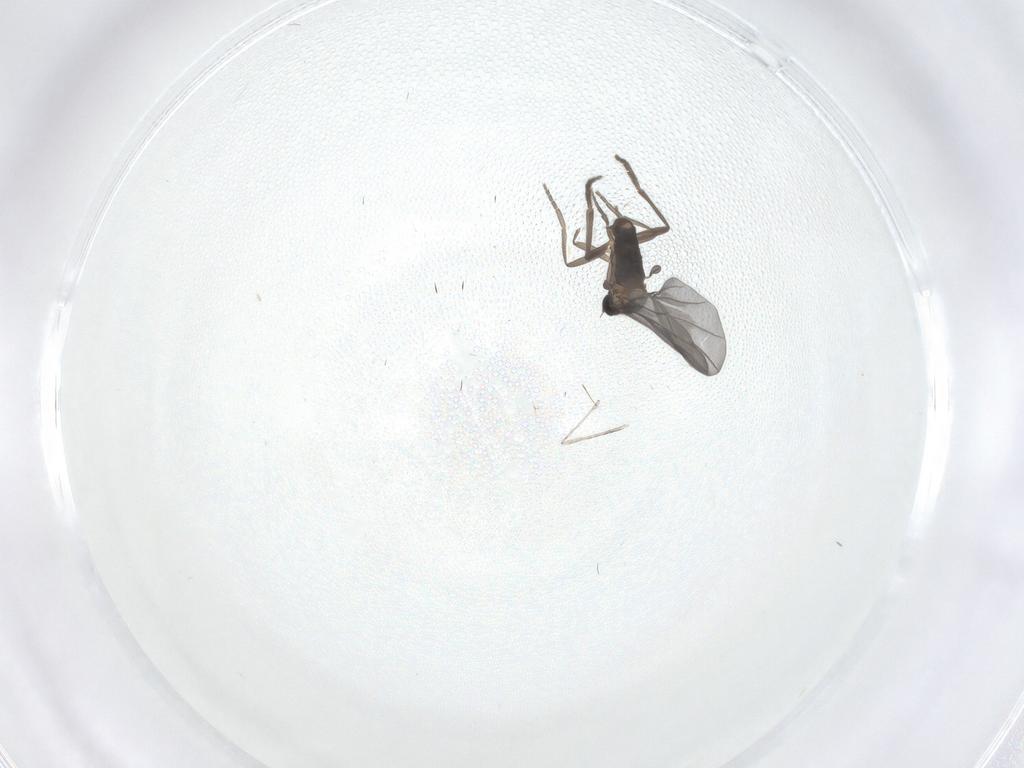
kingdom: Animalia
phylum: Arthropoda
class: Insecta
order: Diptera
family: Phoridae
